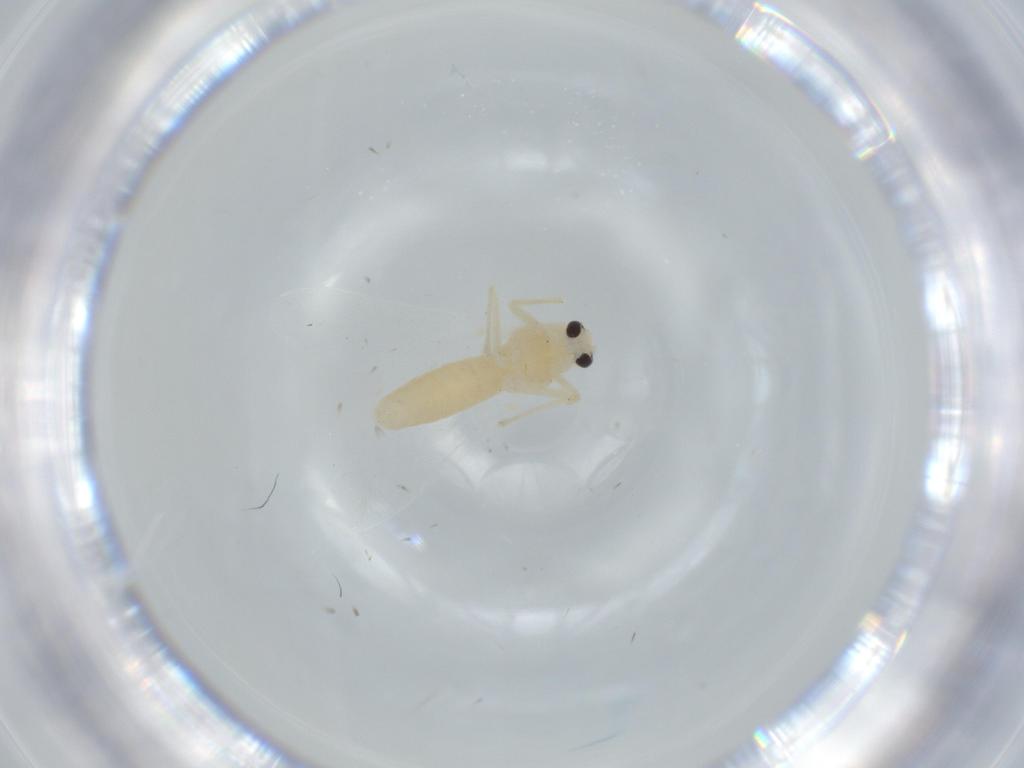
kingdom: Animalia
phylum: Arthropoda
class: Insecta
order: Diptera
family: Chironomidae
